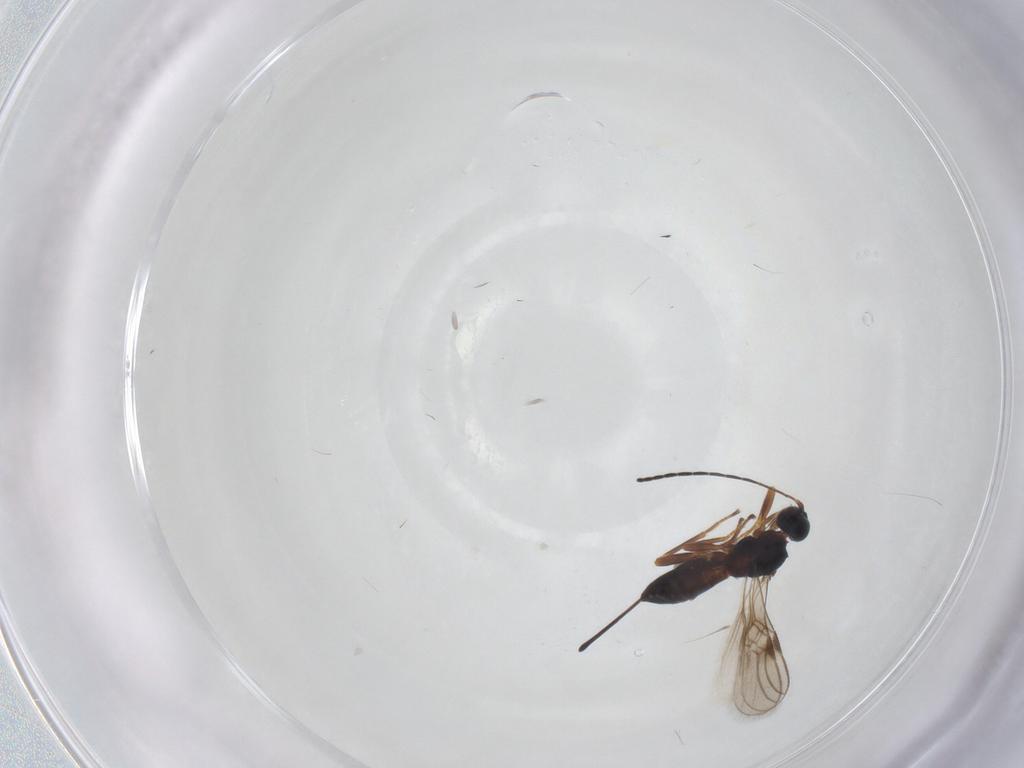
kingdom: Animalia
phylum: Arthropoda
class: Insecta
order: Hymenoptera
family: Braconidae
